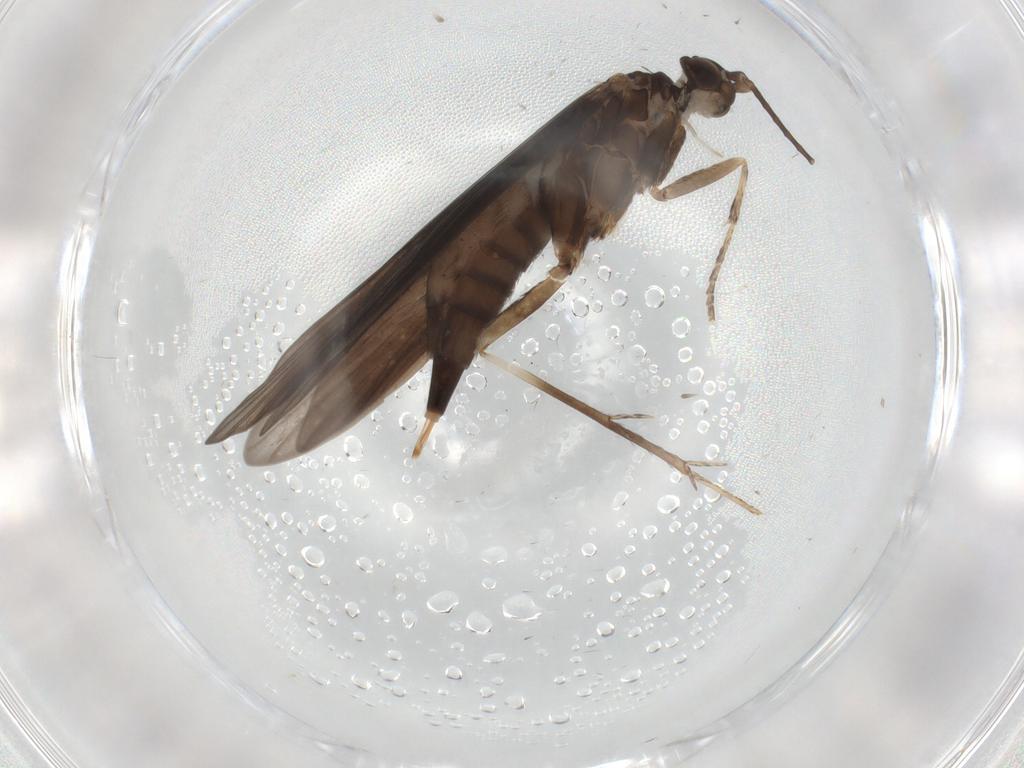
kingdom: Animalia
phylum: Arthropoda
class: Insecta
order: Trichoptera
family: Xiphocentronidae
